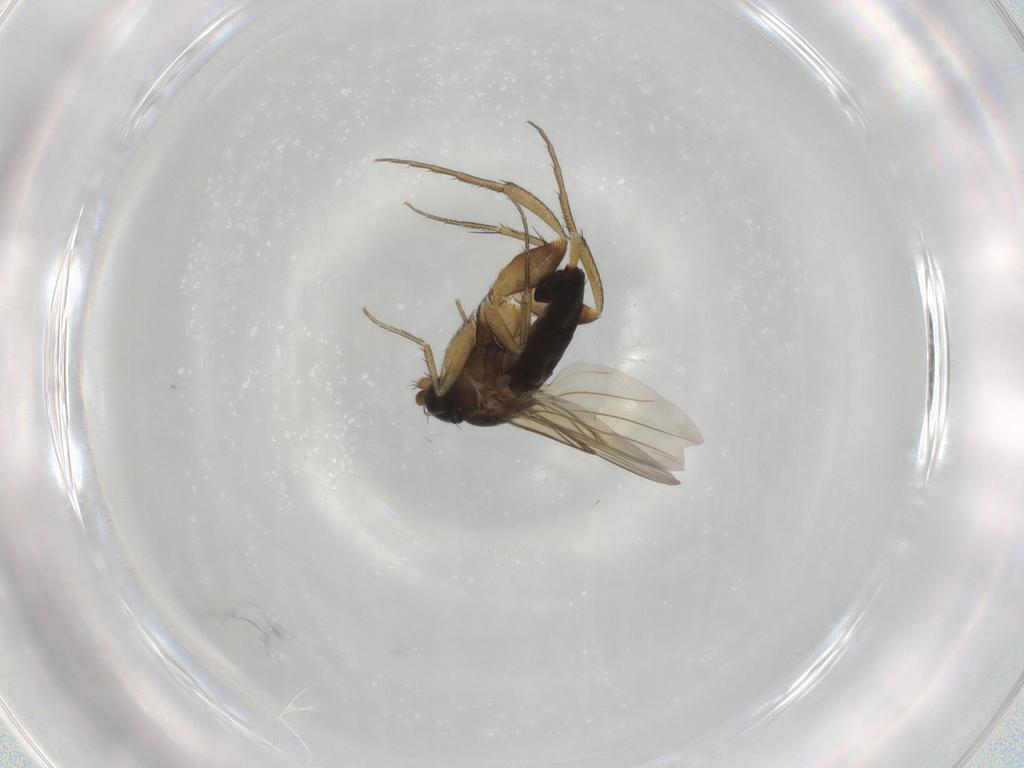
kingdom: Animalia
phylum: Arthropoda
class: Insecta
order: Diptera
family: Phoridae
